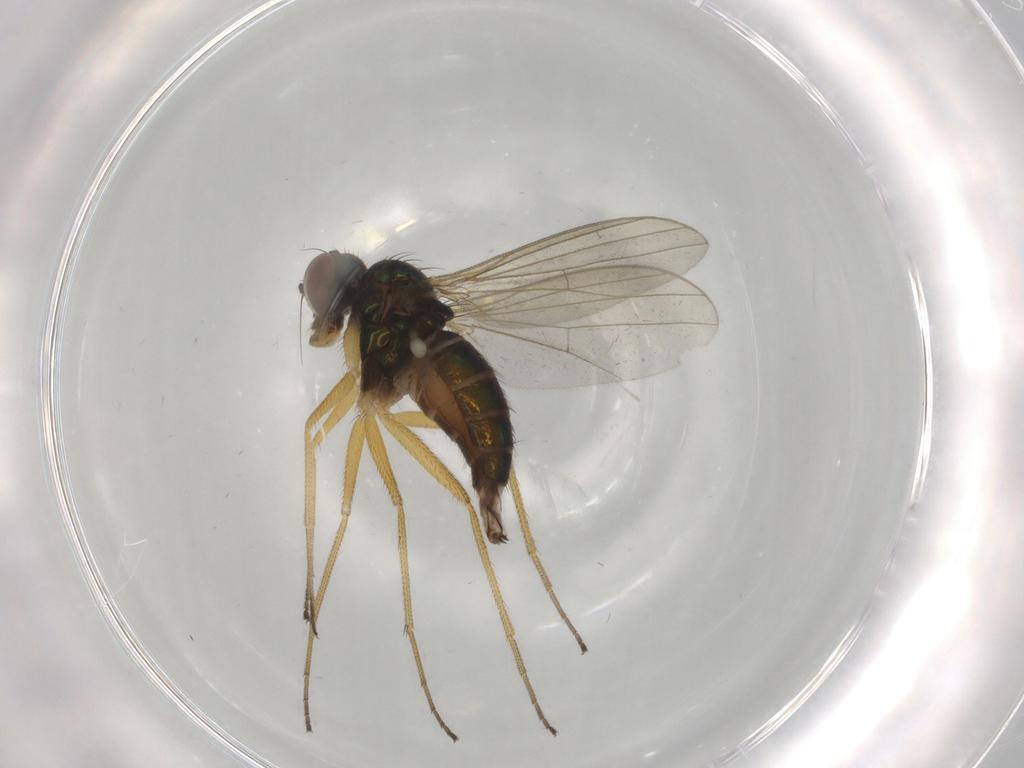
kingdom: Animalia
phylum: Arthropoda
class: Insecta
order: Diptera
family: Dolichopodidae
